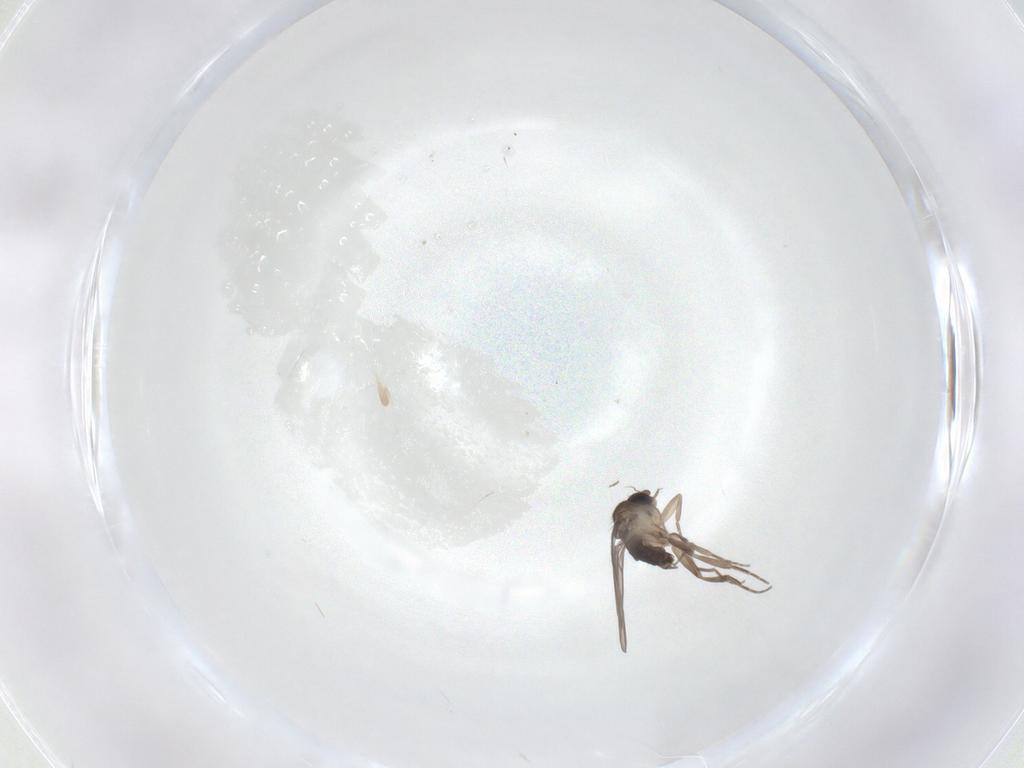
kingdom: Animalia
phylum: Arthropoda
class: Insecta
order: Diptera
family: Phoridae
